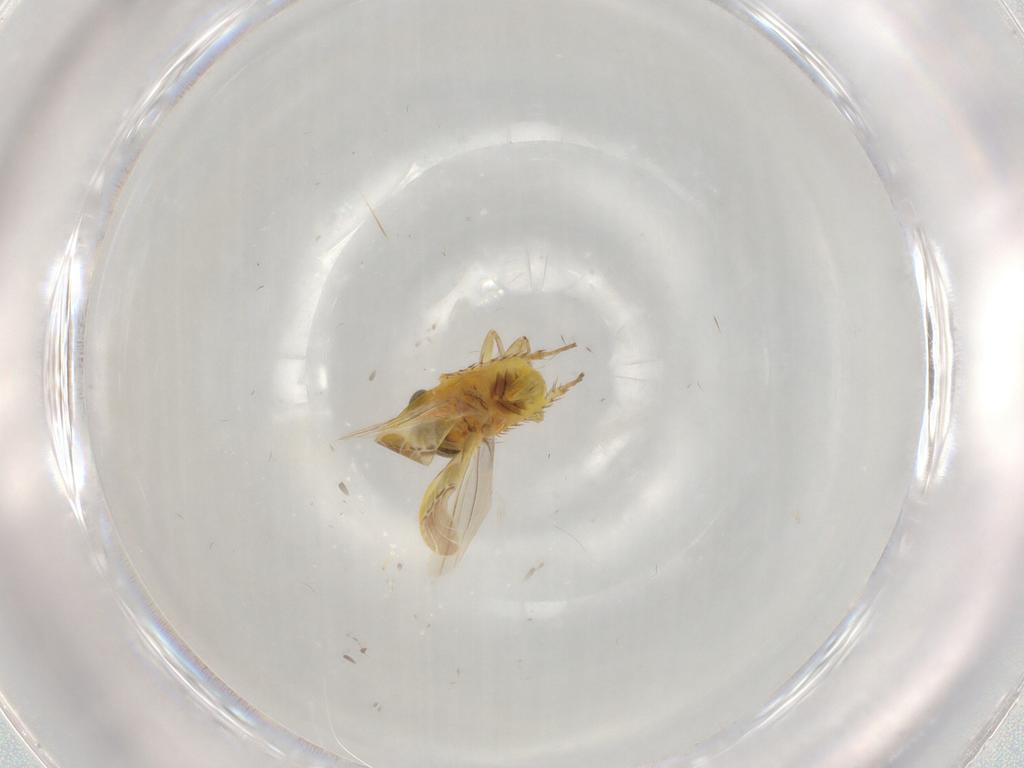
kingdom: Animalia
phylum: Arthropoda
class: Insecta
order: Hemiptera
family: Cicadellidae
